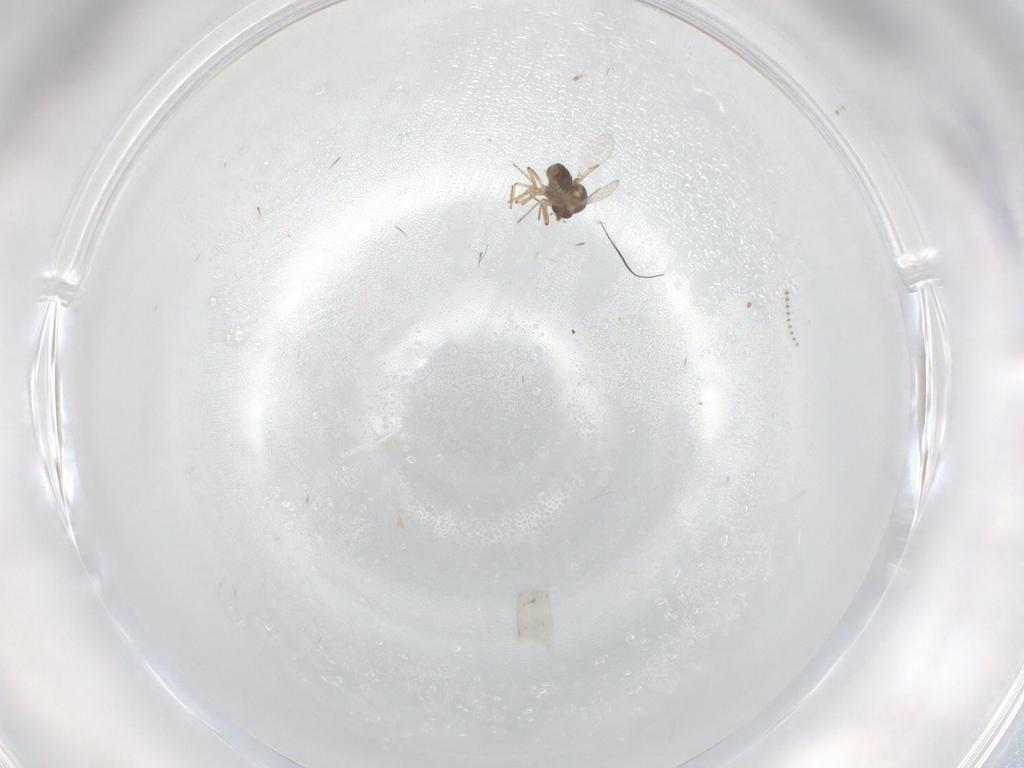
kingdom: Animalia
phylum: Arthropoda
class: Insecta
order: Diptera
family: Ceratopogonidae
